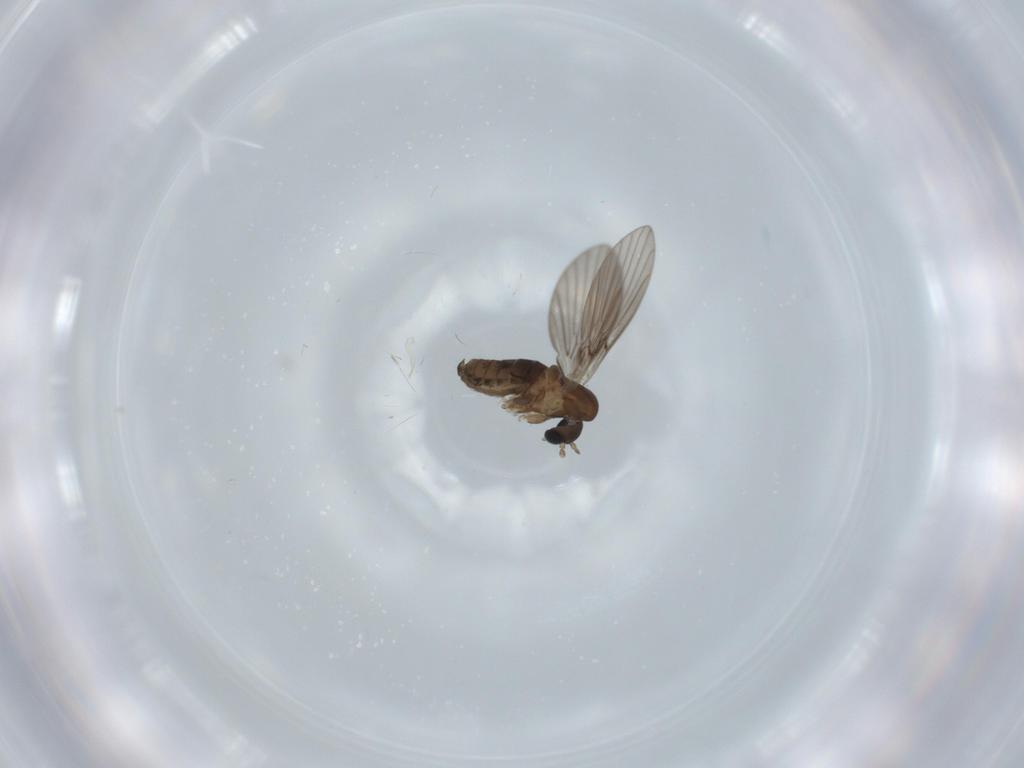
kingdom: Animalia
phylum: Arthropoda
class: Insecta
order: Diptera
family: Psychodidae
